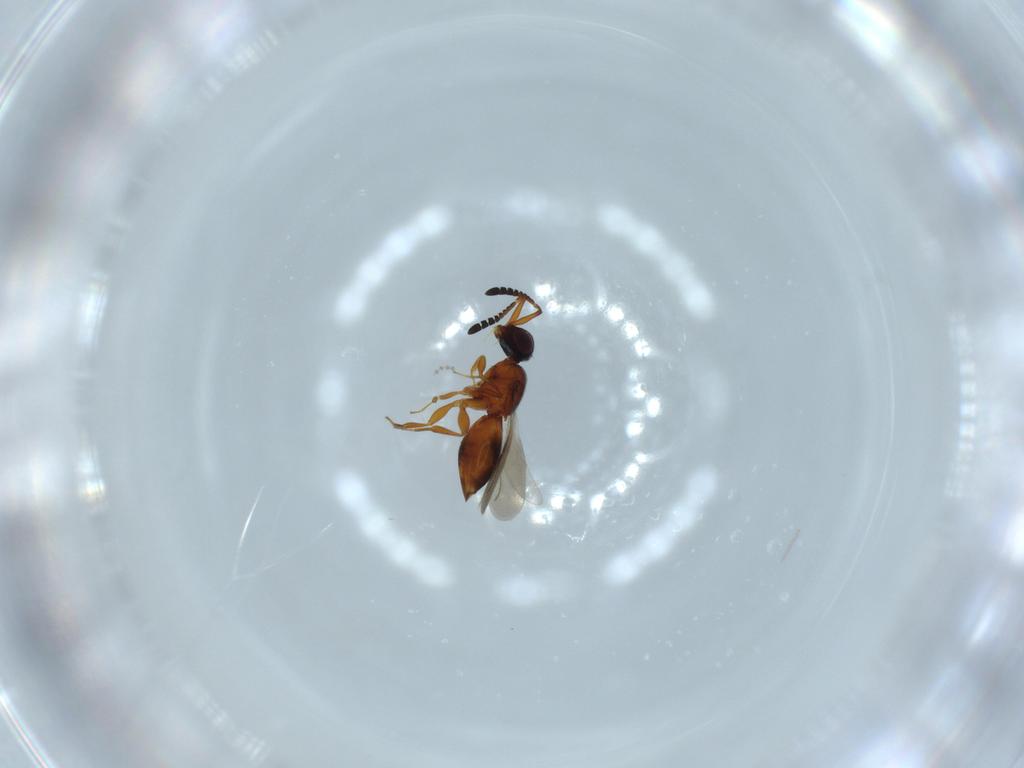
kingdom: Animalia
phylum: Arthropoda
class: Insecta
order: Hymenoptera
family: Ceraphronidae
